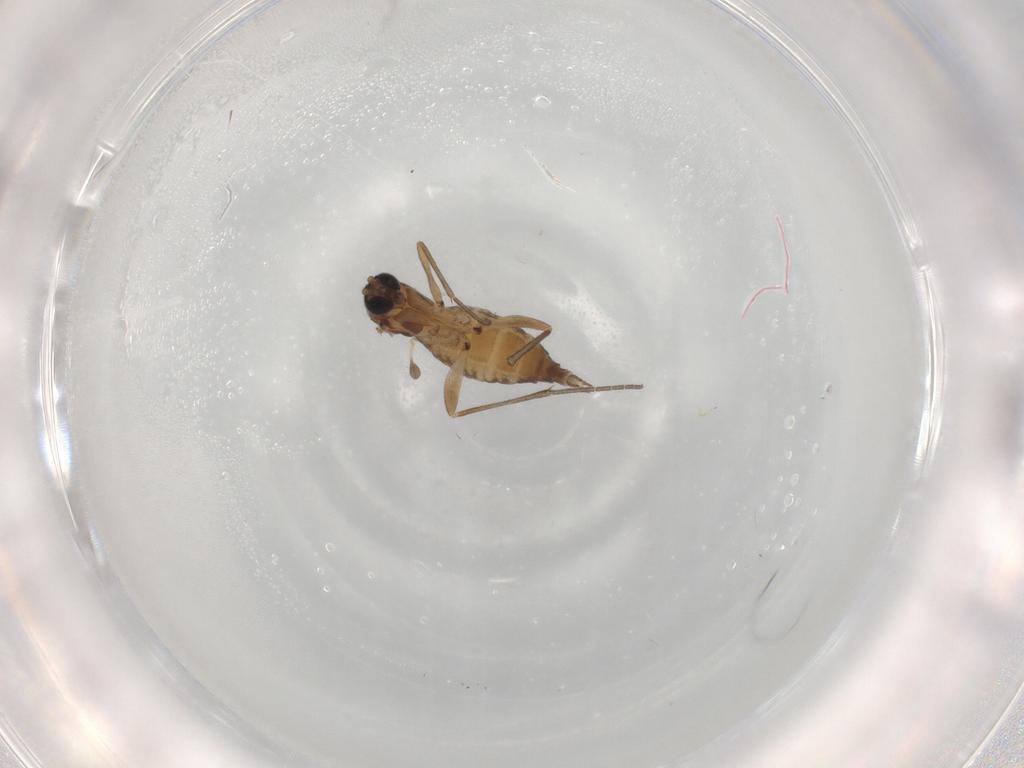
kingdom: Animalia
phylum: Arthropoda
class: Insecta
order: Diptera
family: Sciaridae
